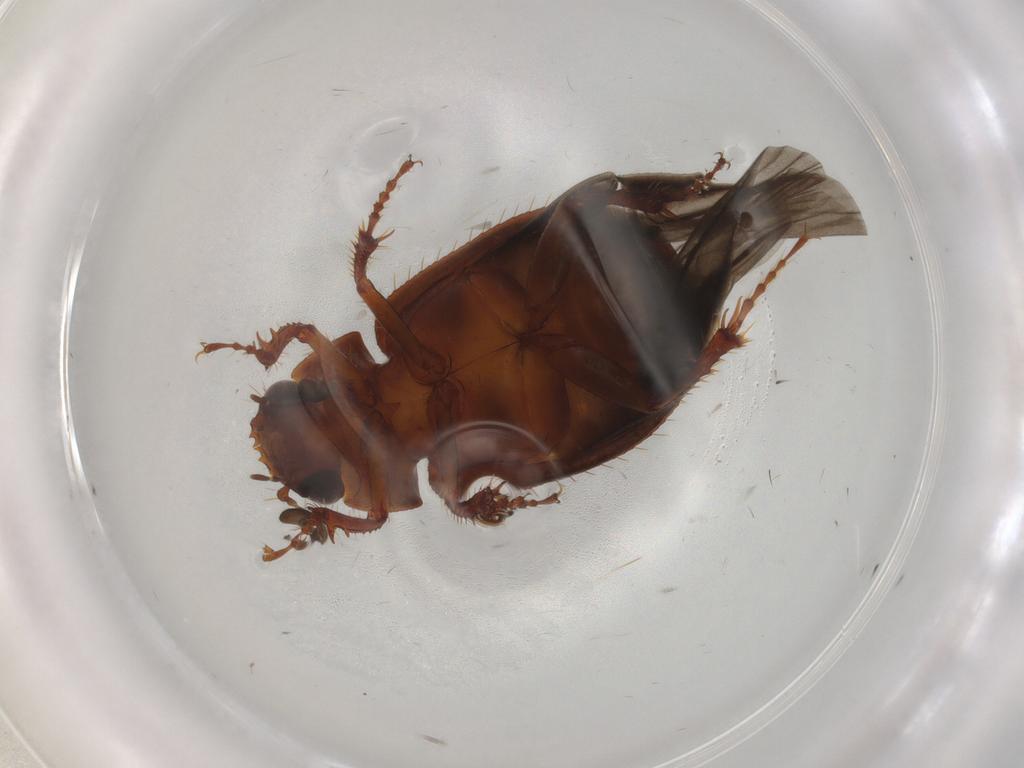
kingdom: Animalia
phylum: Arthropoda
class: Insecta
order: Coleoptera
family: Hybosoridae
